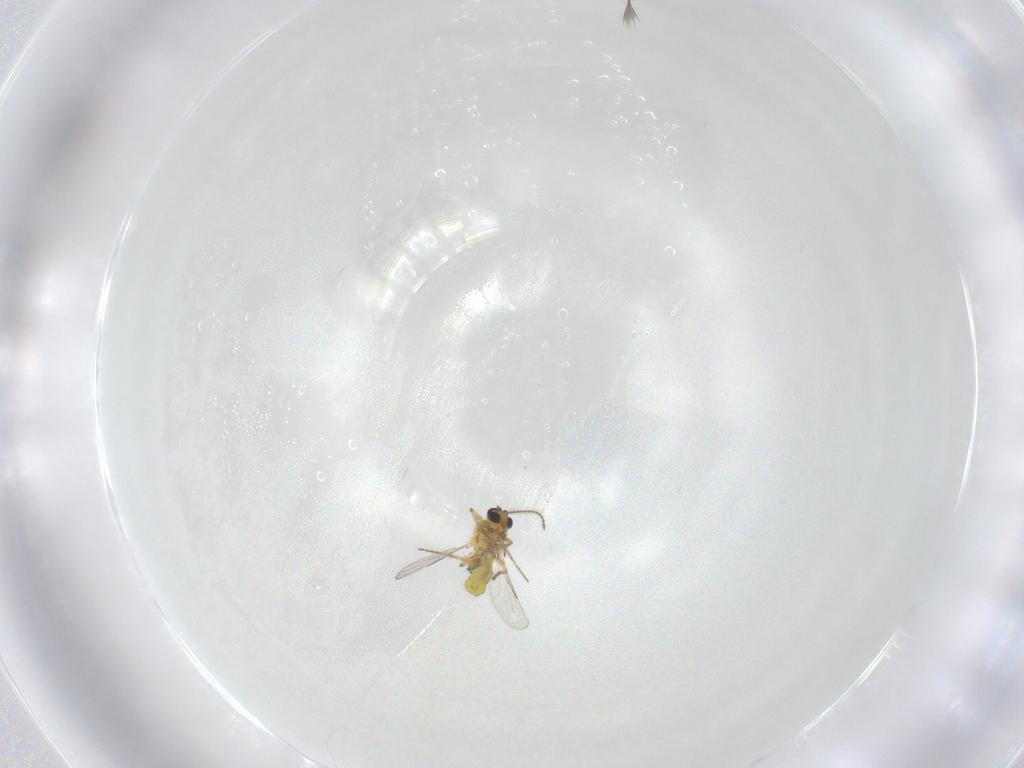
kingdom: Animalia
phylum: Arthropoda
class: Insecta
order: Diptera
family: Ceratopogonidae
